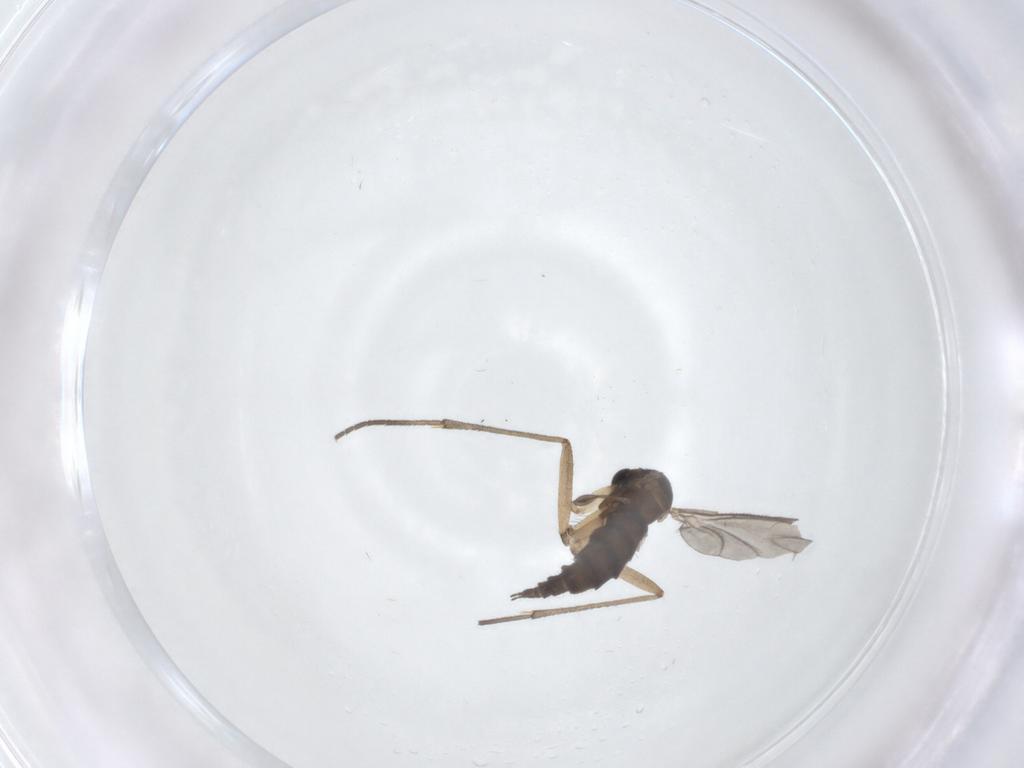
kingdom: Animalia
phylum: Arthropoda
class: Insecta
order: Diptera
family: Sciaridae
